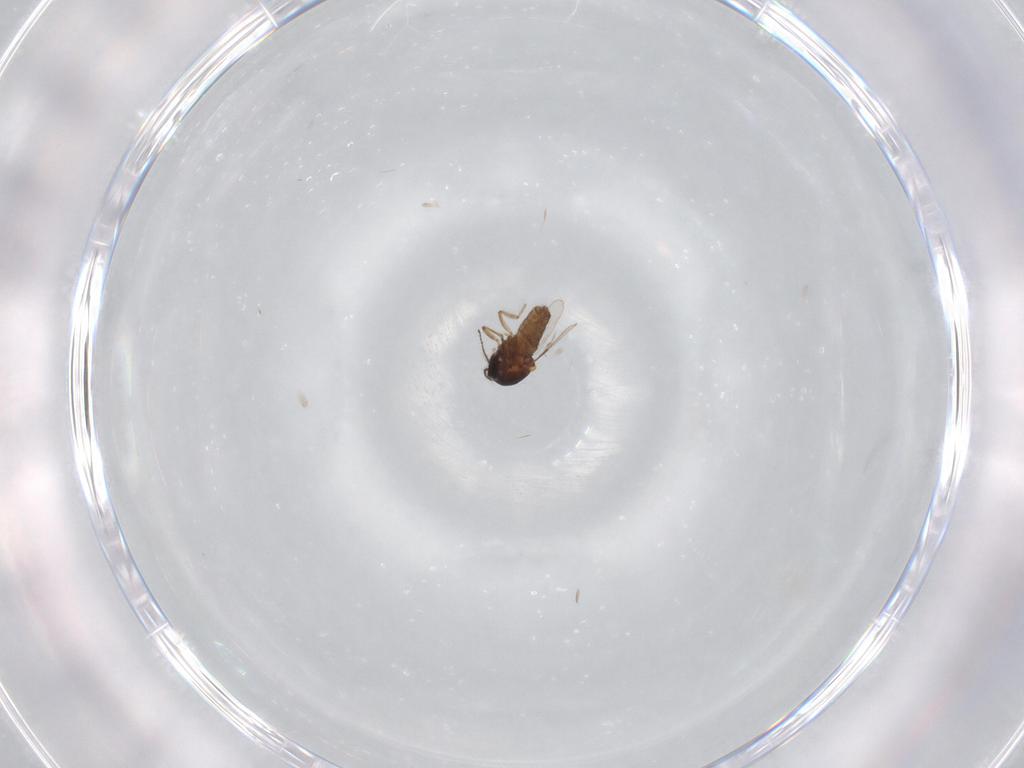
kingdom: Animalia
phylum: Arthropoda
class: Insecta
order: Diptera
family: Ceratopogonidae
